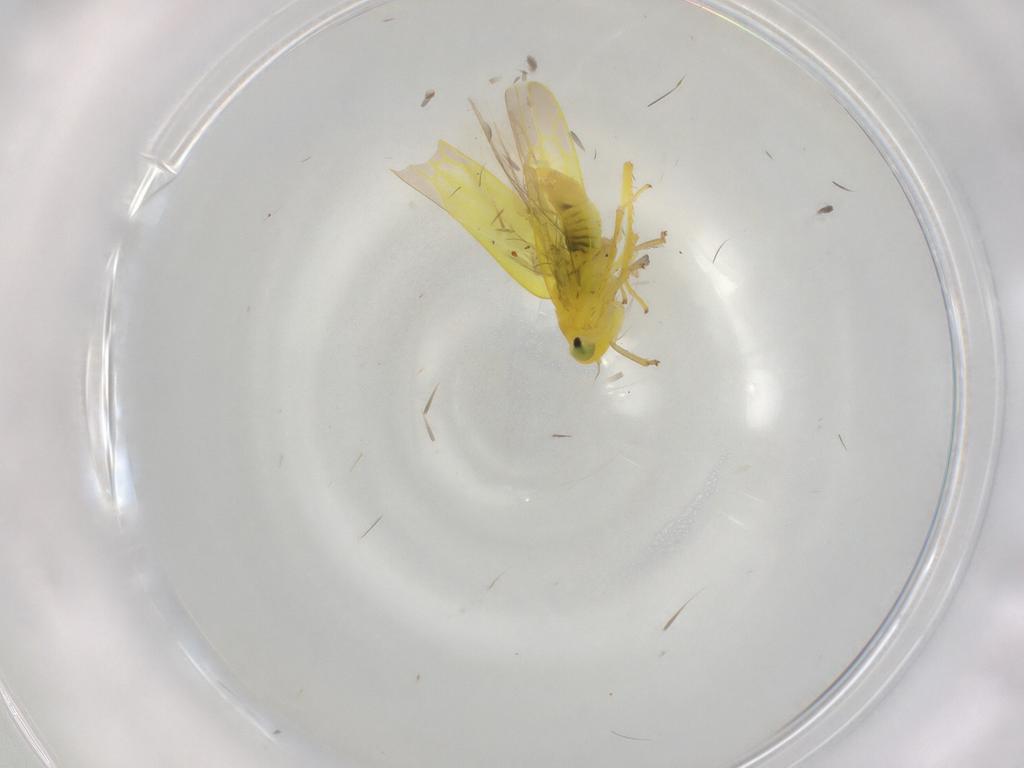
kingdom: Animalia
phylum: Arthropoda
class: Insecta
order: Hemiptera
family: Cicadellidae
